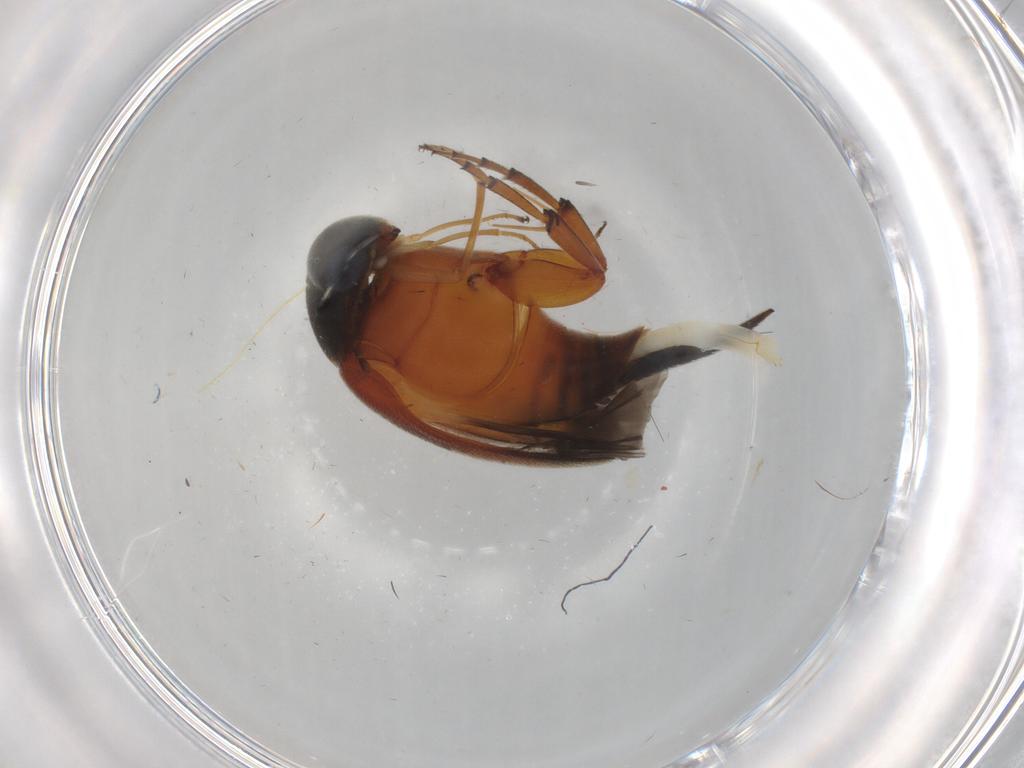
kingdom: Animalia
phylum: Arthropoda
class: Insecta
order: Coleoptera
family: Mordellidae
